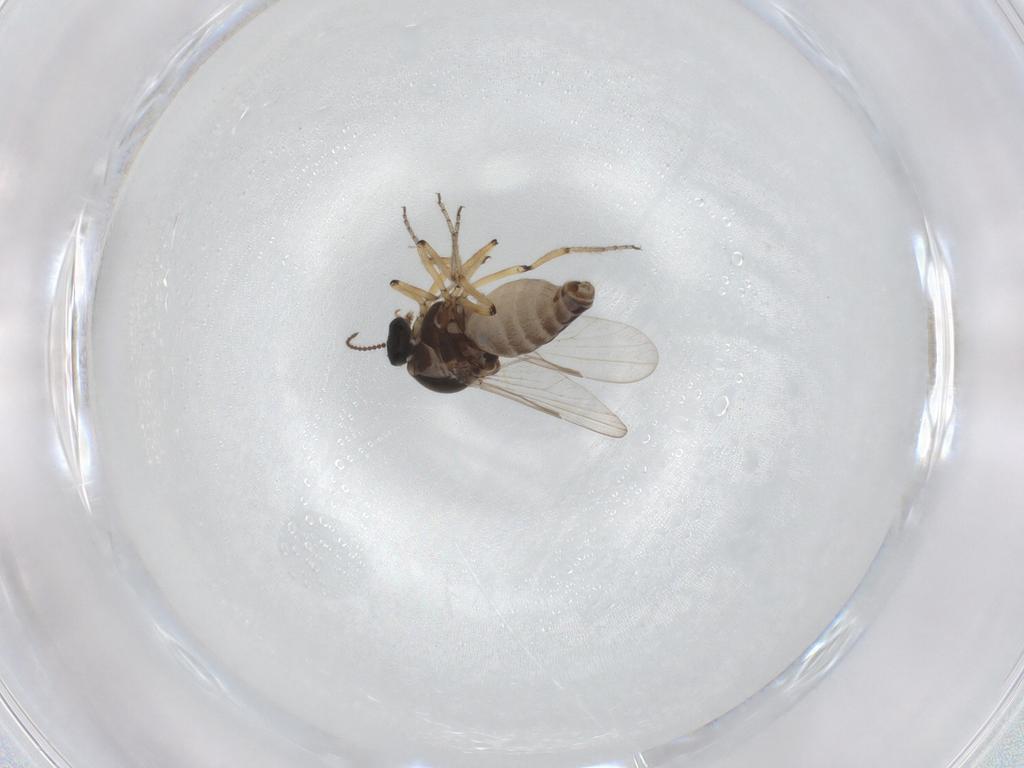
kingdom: Animalia
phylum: Arthropoda
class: Insecta
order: Diptera
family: Ceratopogonidae
